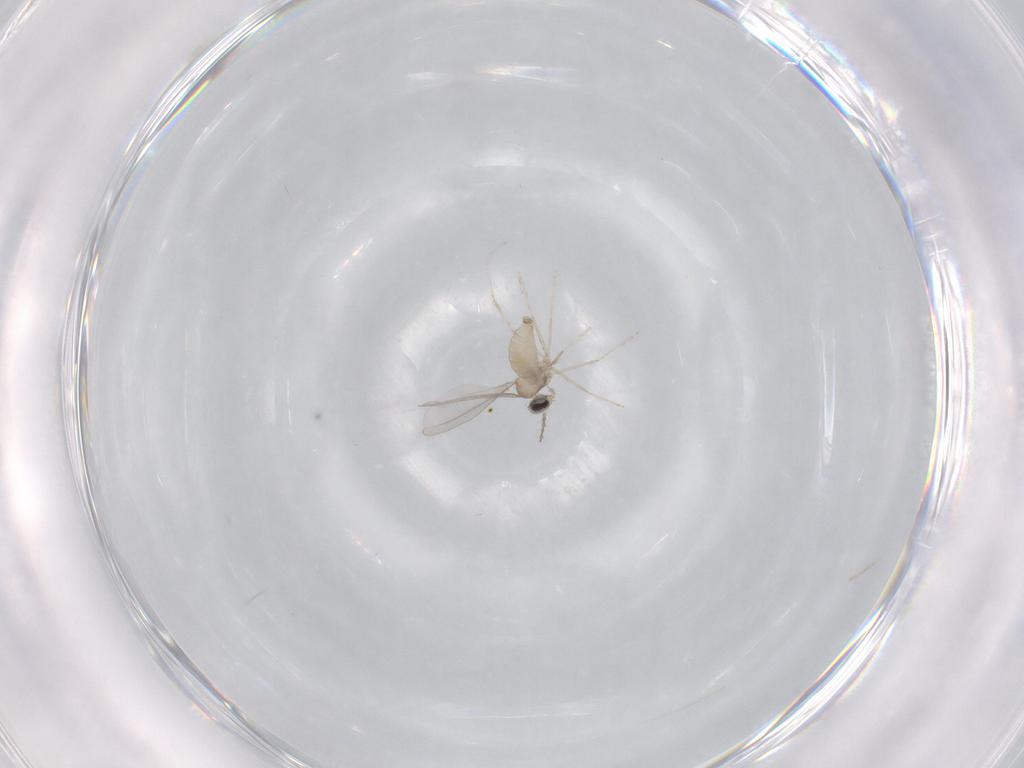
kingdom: Animalia
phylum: Arthropoda
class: Insecta
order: Diptera
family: Cecidomyiidae
